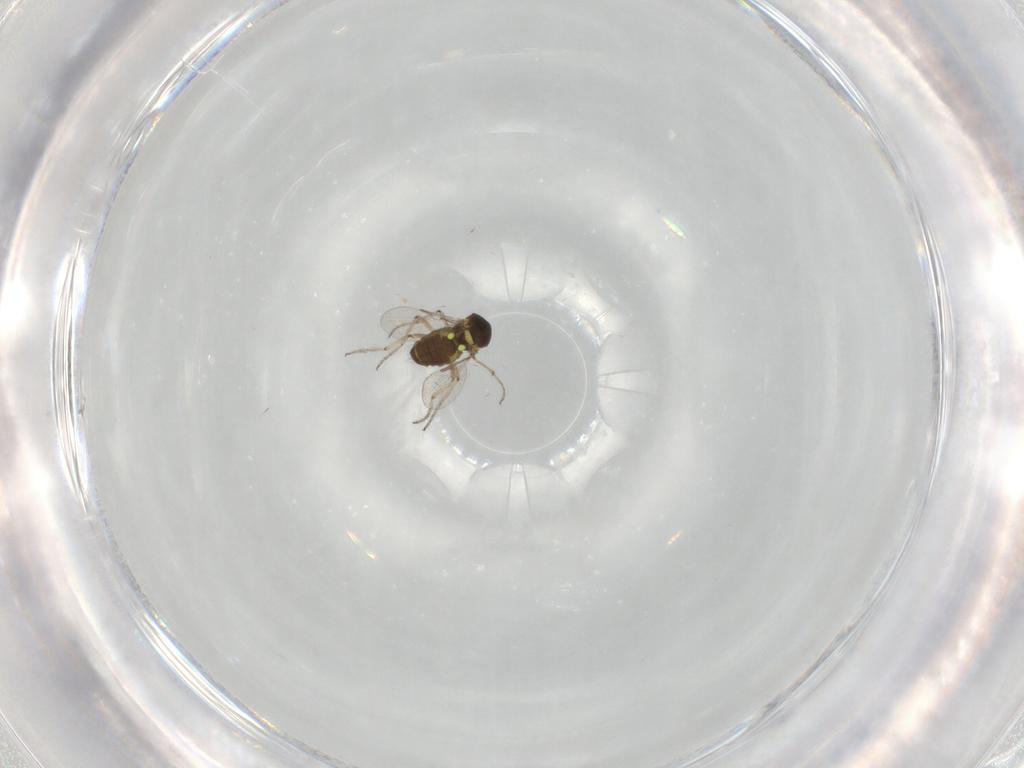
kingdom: Animalia
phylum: Arthropoda
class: Insecta
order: Diptera
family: Ceratopogonidae
